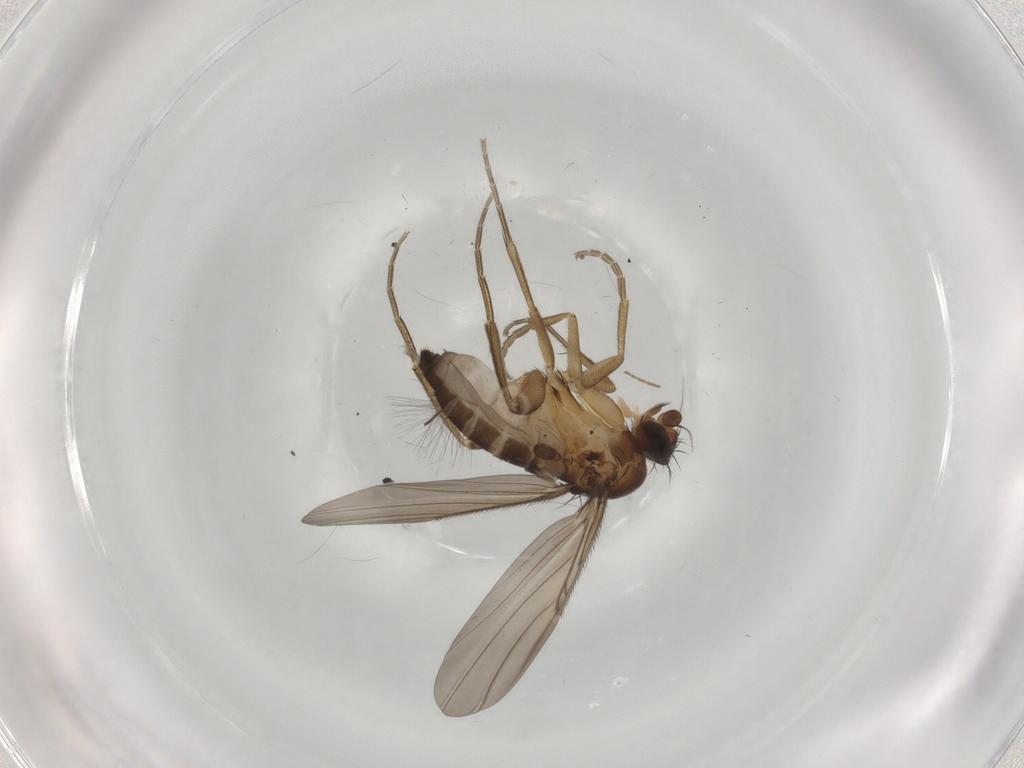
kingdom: Animalia
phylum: Arthropoda
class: Insecta
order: Diptera
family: Phoridae
